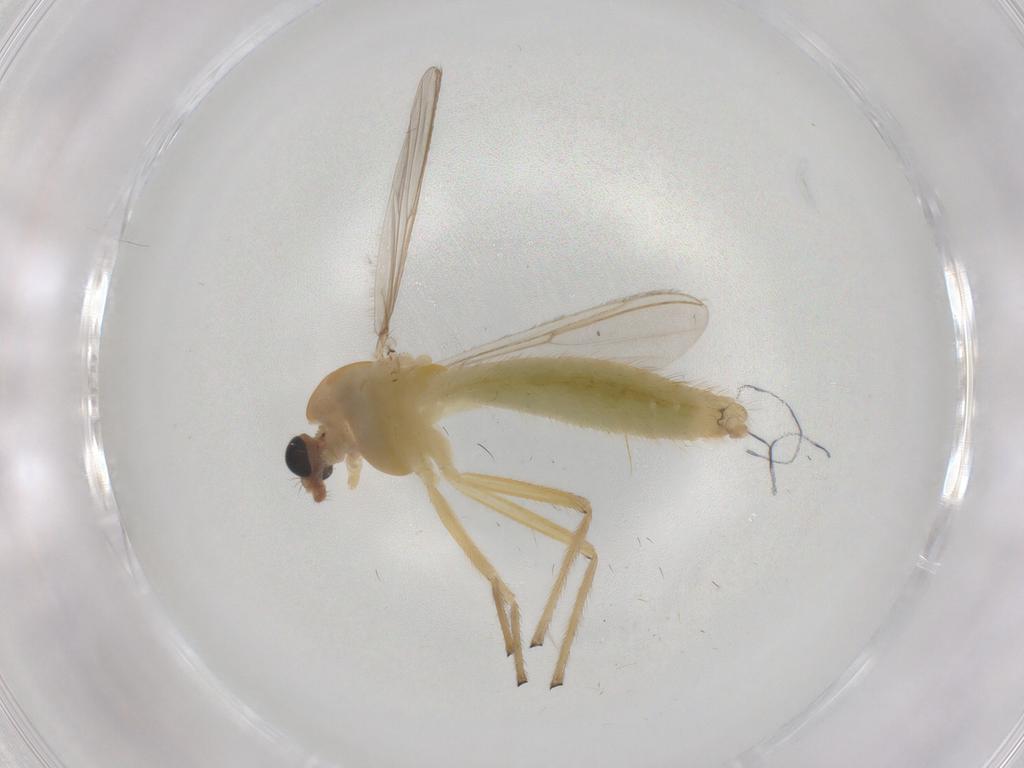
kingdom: Animalia
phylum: Arthropoda
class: Insecta
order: Diptera
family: Chironomidae
